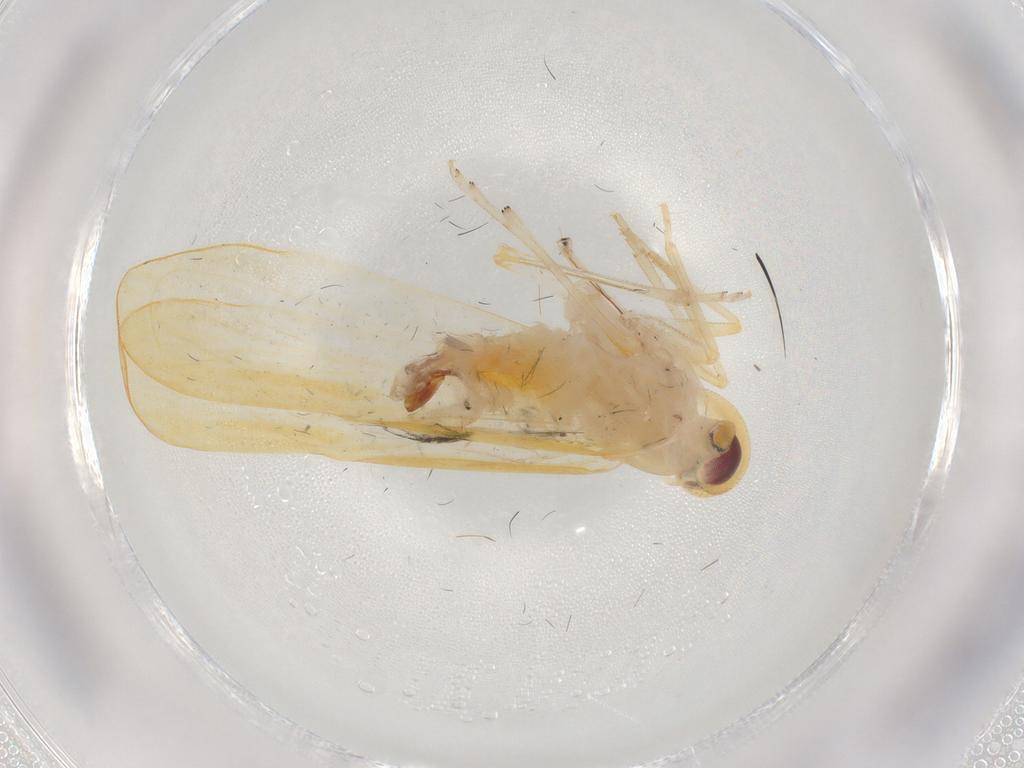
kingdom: Animalia
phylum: Arthropoda
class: Insecta
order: Hemiptera
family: Derbidae
